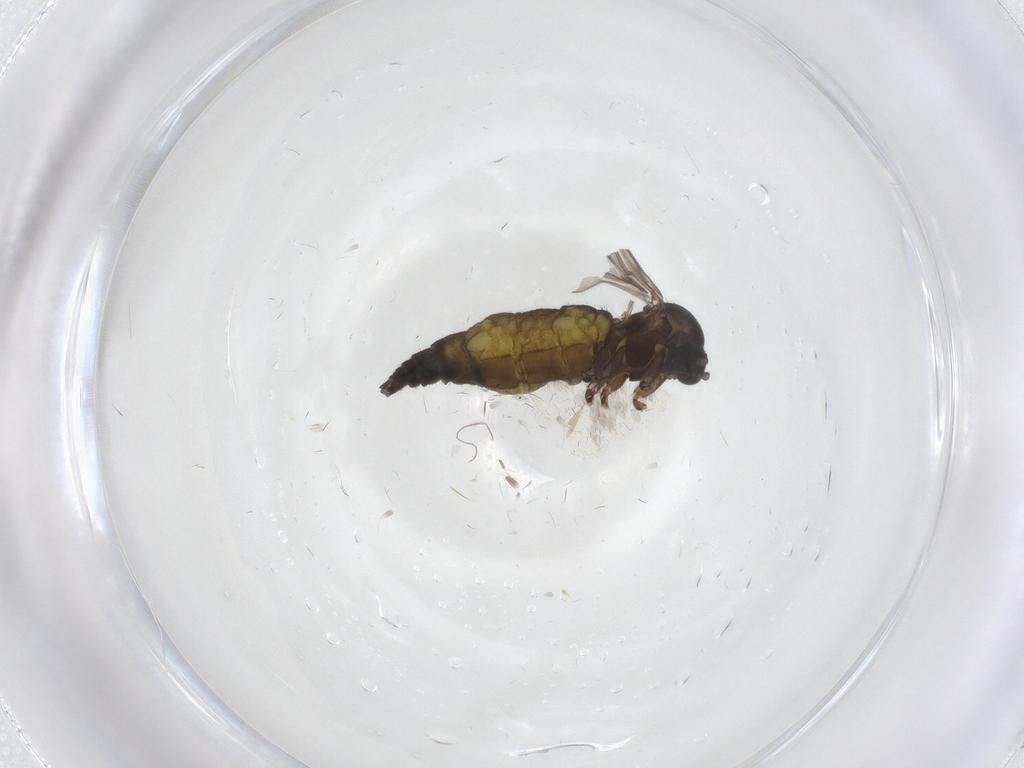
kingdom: Animalia
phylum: Arthropoda
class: Insecta
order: Diptera
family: Sciaridae
